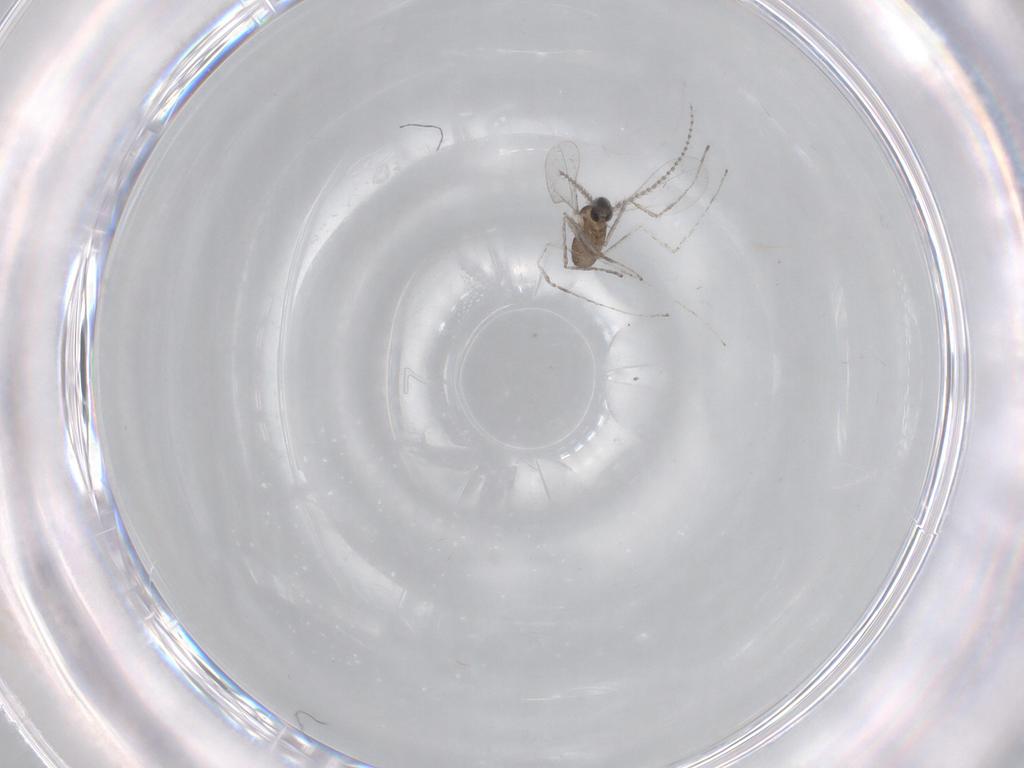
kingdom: Animalia
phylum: Arthropoda
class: Insecta
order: Diptera
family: Cecidomyiidae
